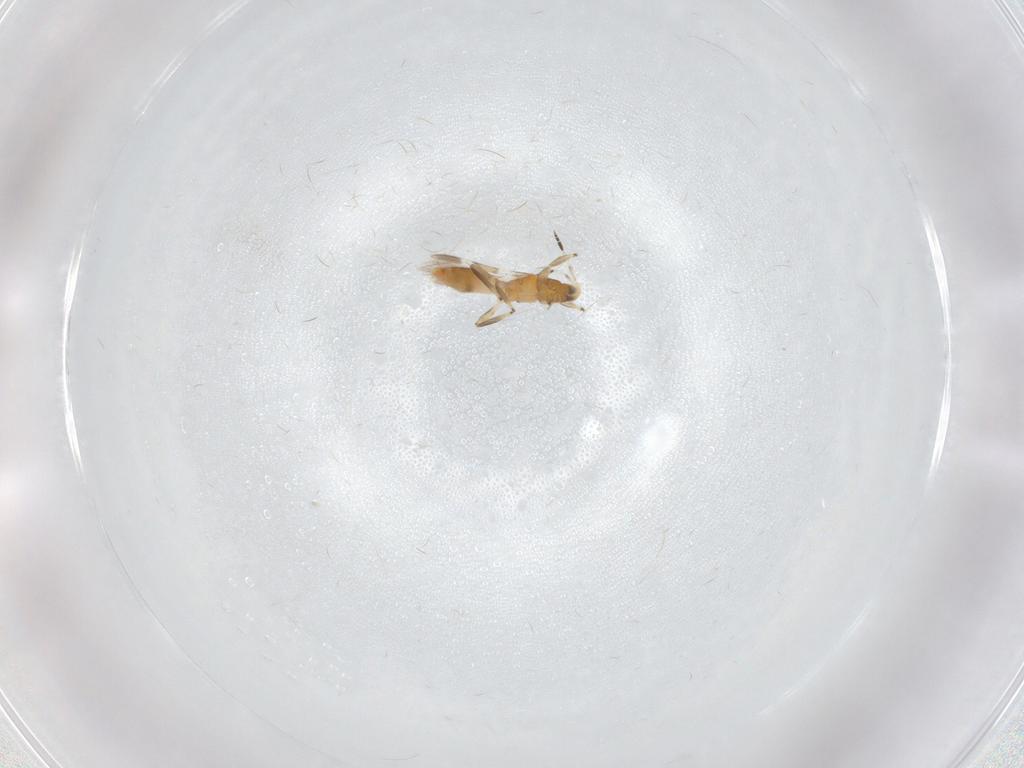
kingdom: Animalia
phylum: Arthropoda
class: Insecta
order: Thysanoptera
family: Aeolothripidae
